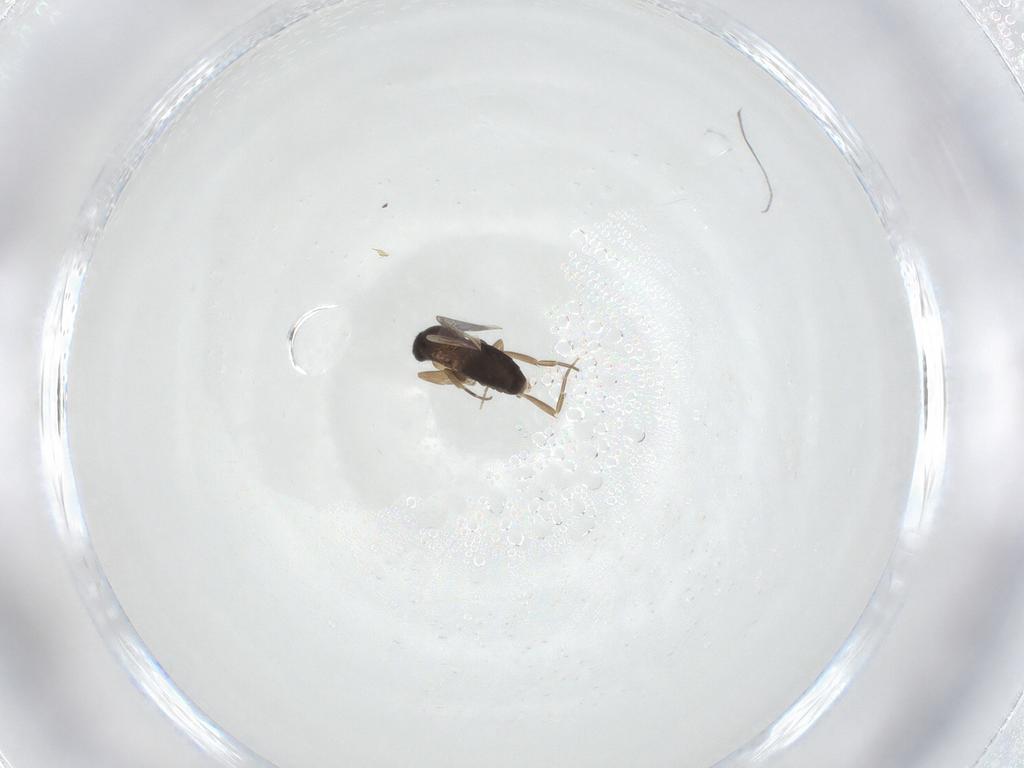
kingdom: Animalia
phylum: Arthropoda
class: Insecta
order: Diptera
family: Phoridae
